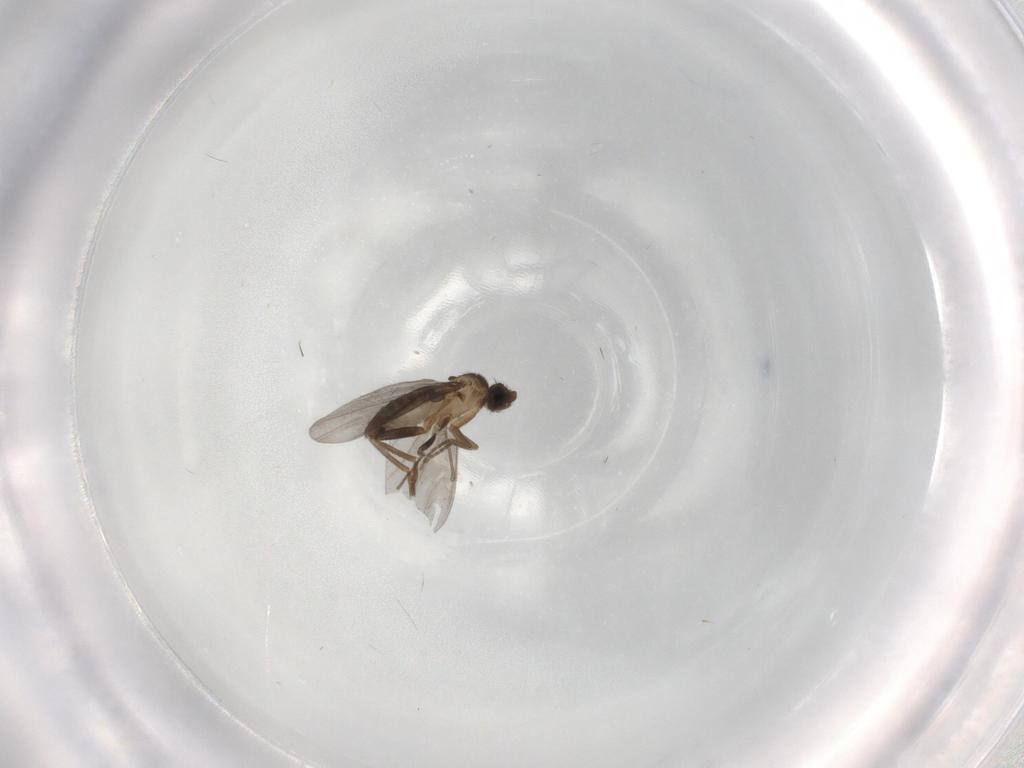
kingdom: Animalia
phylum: Arthropoda
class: Insecta
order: Diptera
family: Phoridae
